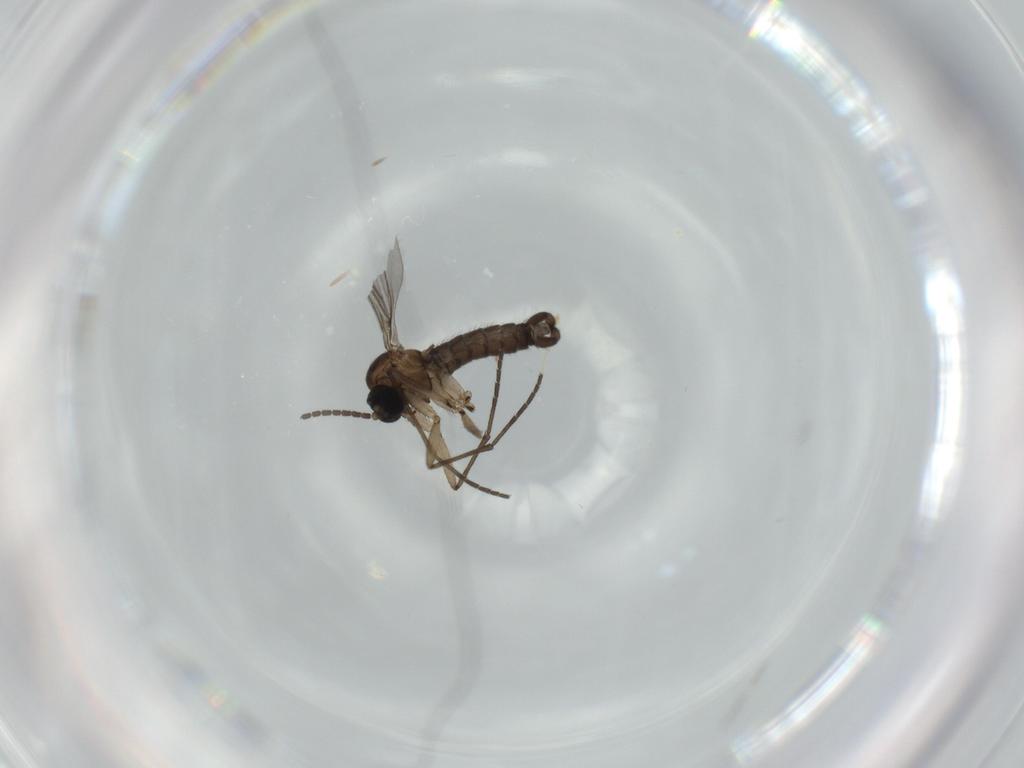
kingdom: Animalia
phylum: Arthropoda
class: Insecta
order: Diptera
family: Sciaridae
